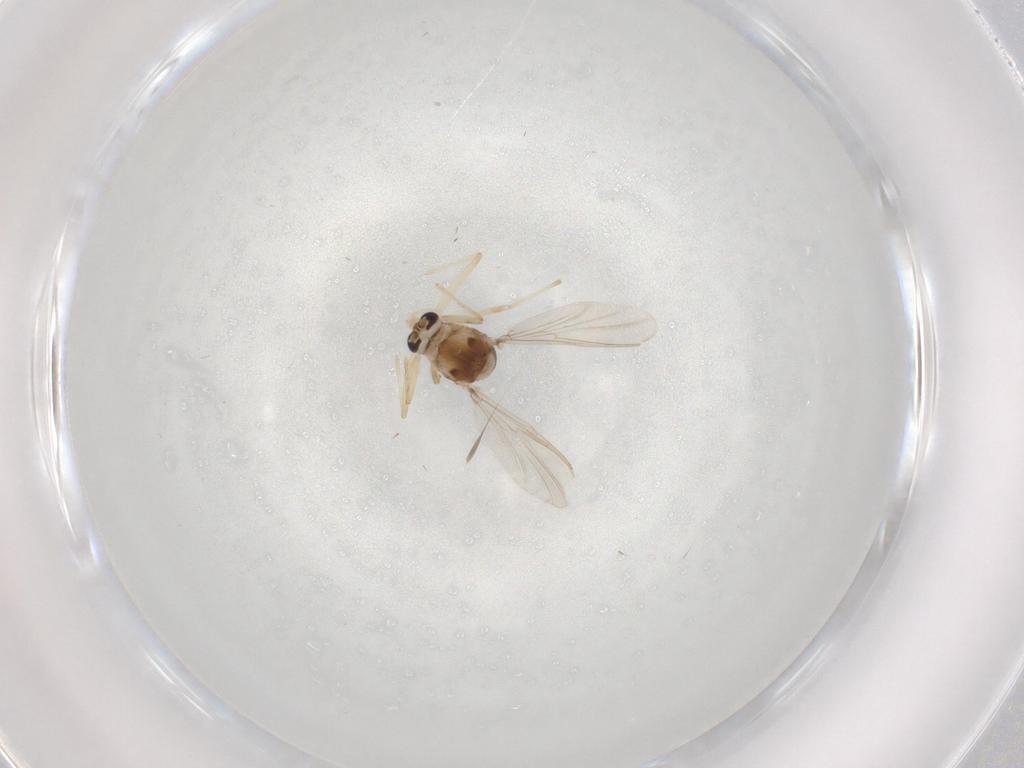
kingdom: Animalia
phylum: Arthropoda
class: Insecta
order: Diptera
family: Chironomidae
